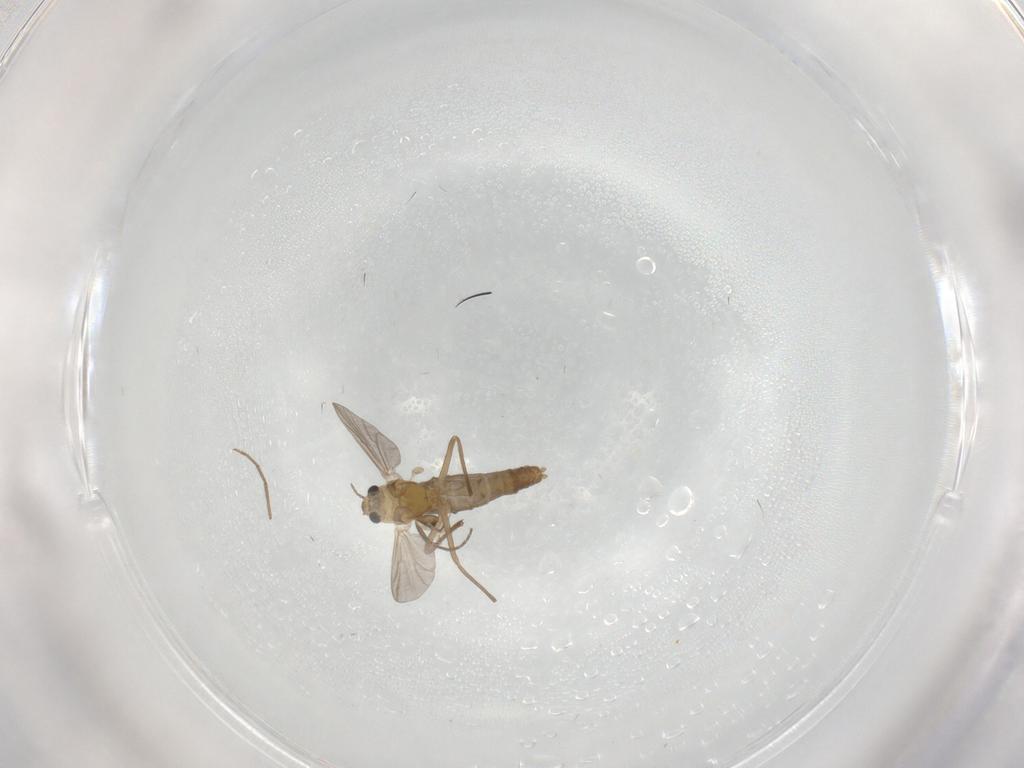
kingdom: Animalia
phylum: Arthropoda
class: Insecta
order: Diptera
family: Chironomidae
